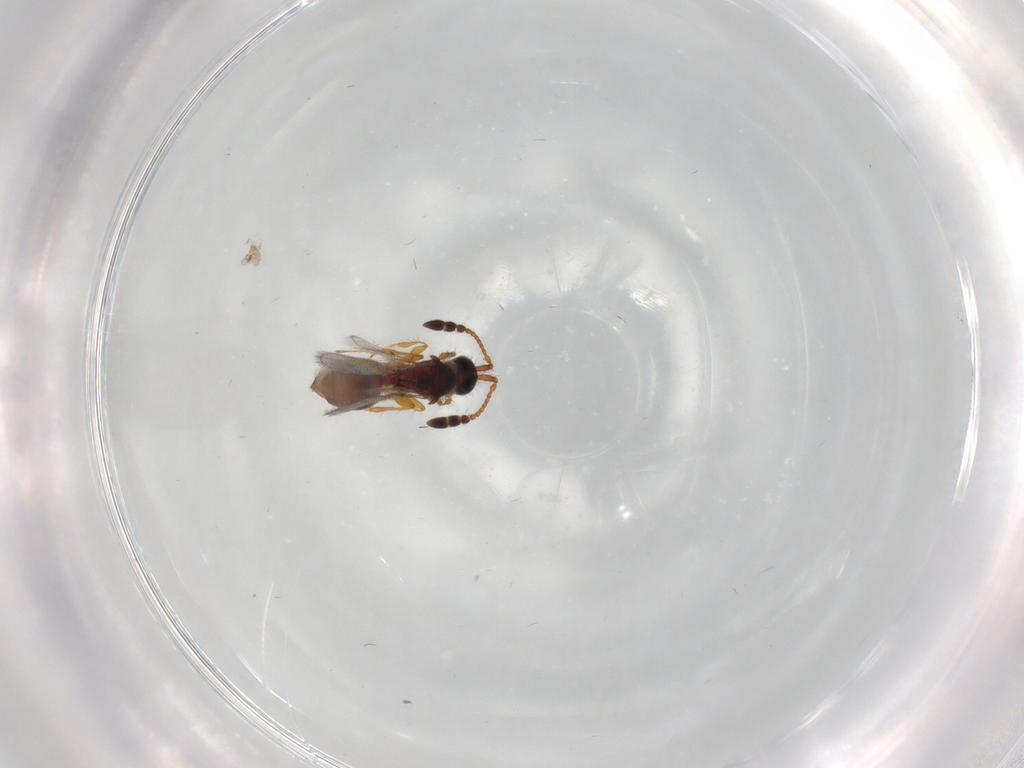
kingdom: Animalia
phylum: Arthropoda
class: Insecta
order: Hymenoptera
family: Diapriidae
